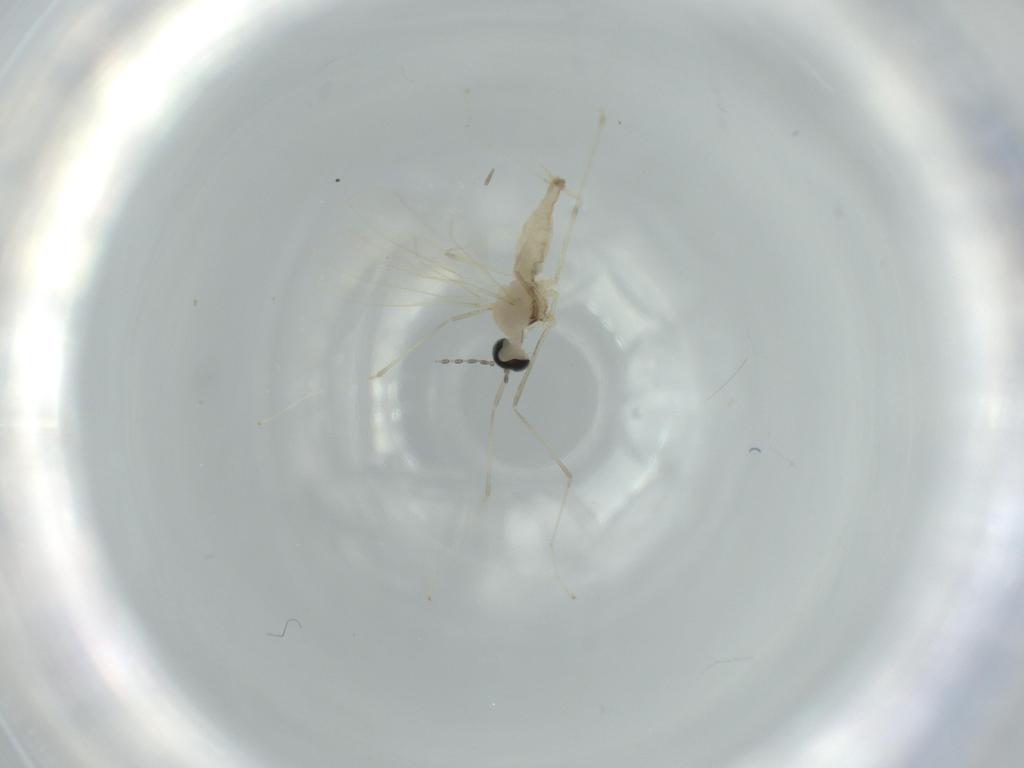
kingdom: Animalia
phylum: Arthropoda
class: Insecta
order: Diptera
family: Cecidomyiidae
